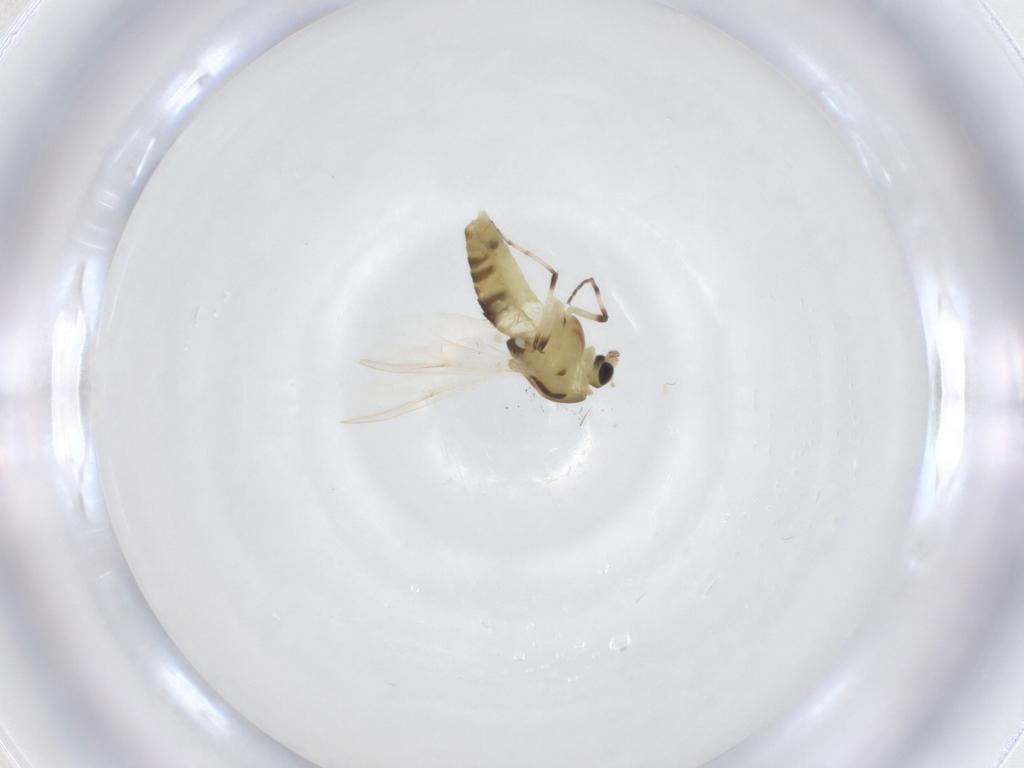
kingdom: Animalia
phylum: Arthropoda
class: Insecta
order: Diptera
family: Chironomidae
